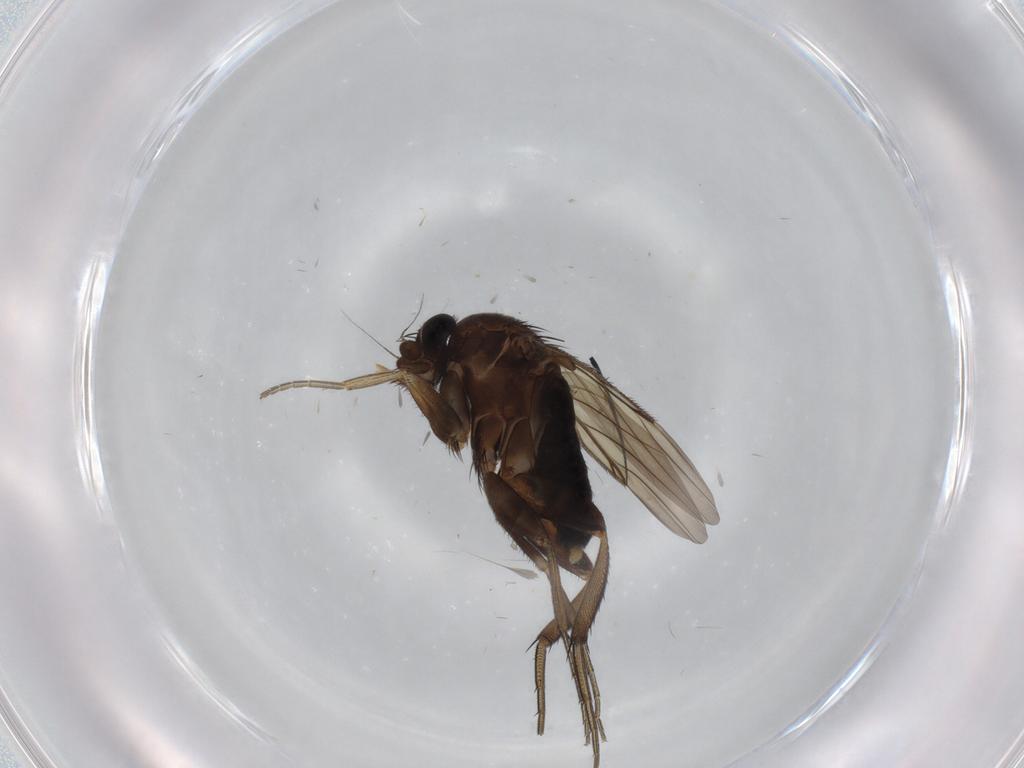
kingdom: Animalia
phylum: Arthropoda
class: Insecta
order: Diptera
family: Phoridae
